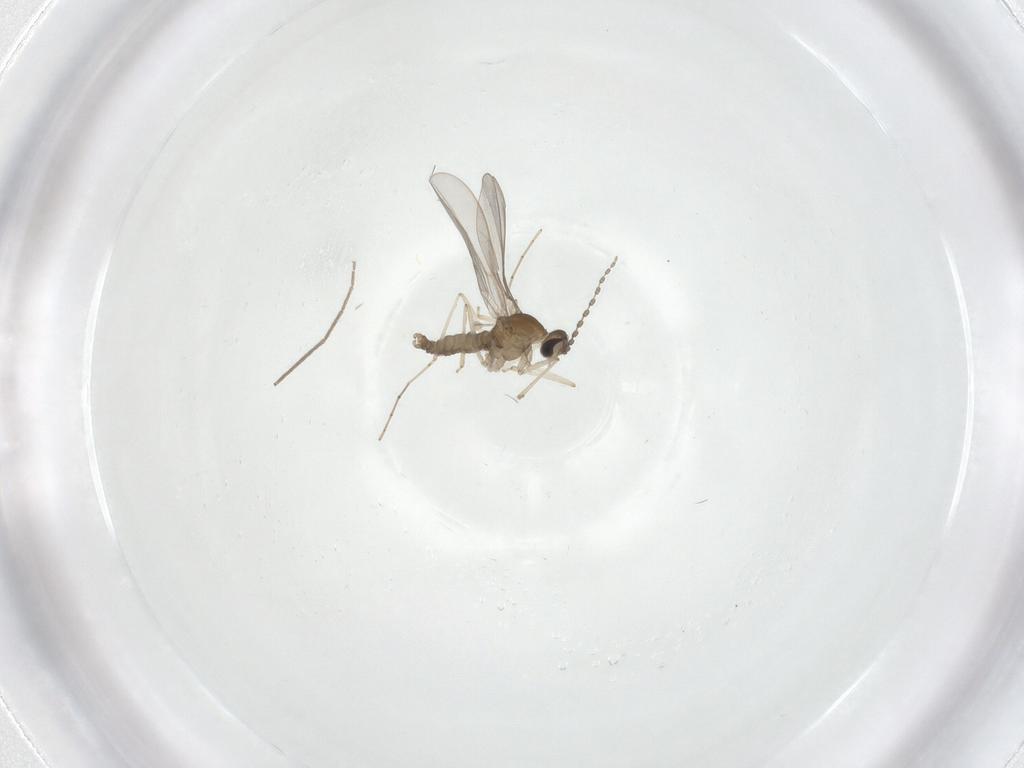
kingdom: Animalia
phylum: Arthropoda
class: Insecta
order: Diptera
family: Cecidomyiidae
